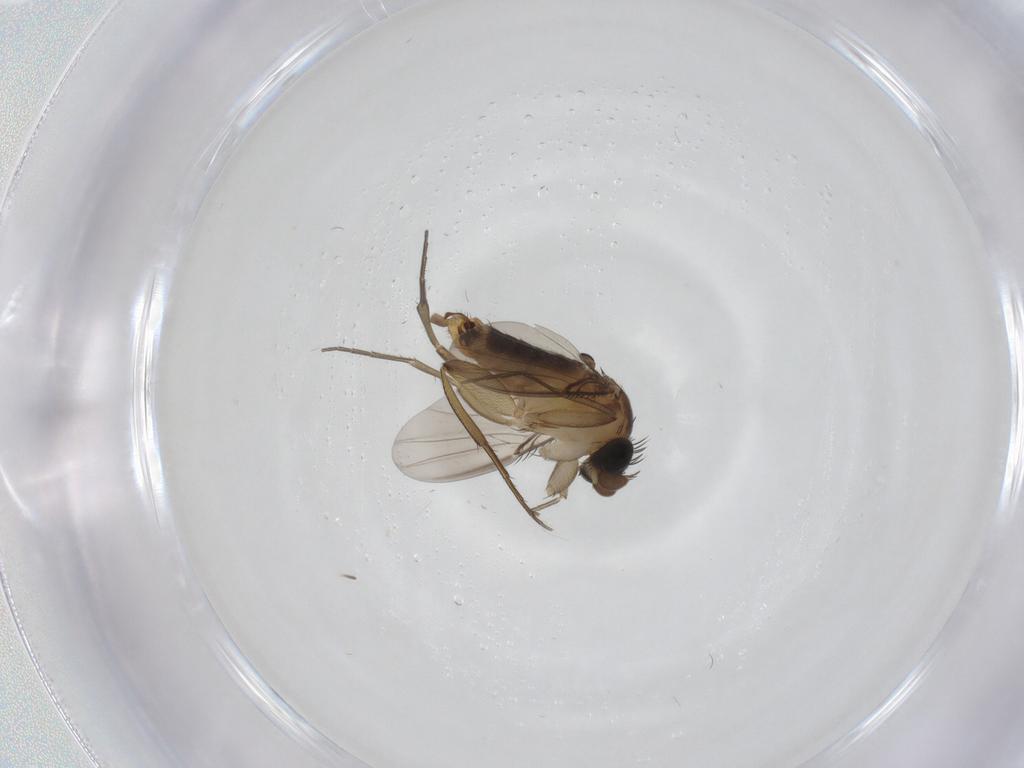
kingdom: Animalia
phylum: Arthropoda
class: Insecta
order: Diptera
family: Phoridae
